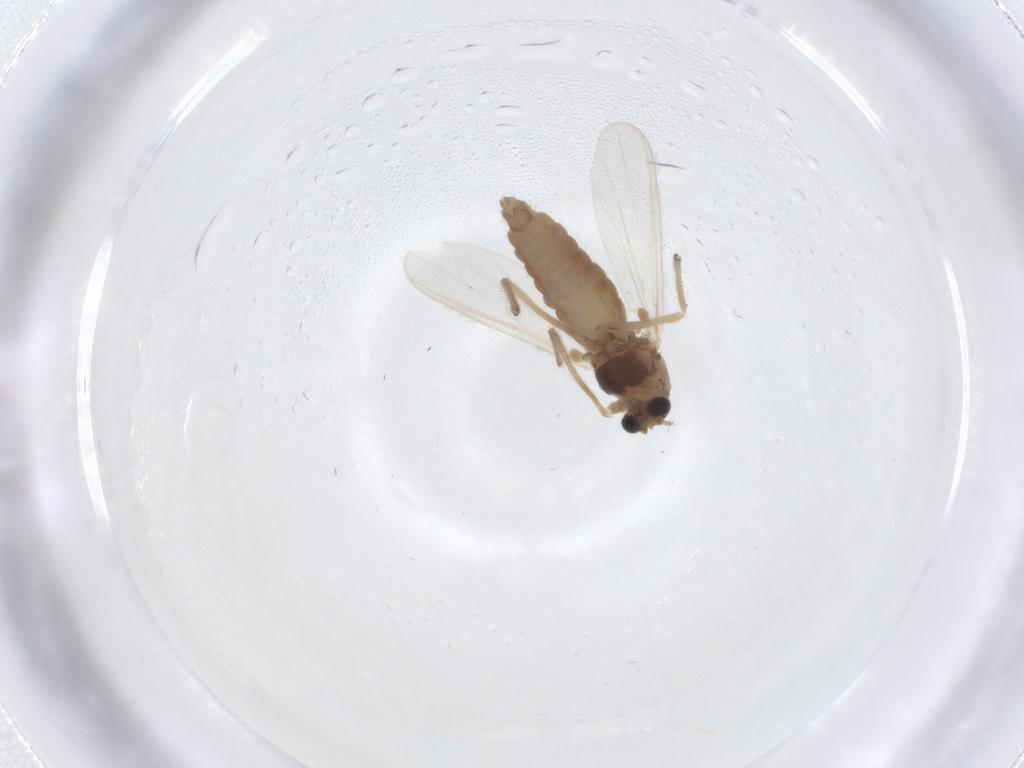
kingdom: Animalia
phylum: Arthropoda
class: Insecta
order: Diptera
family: Chironomidae
